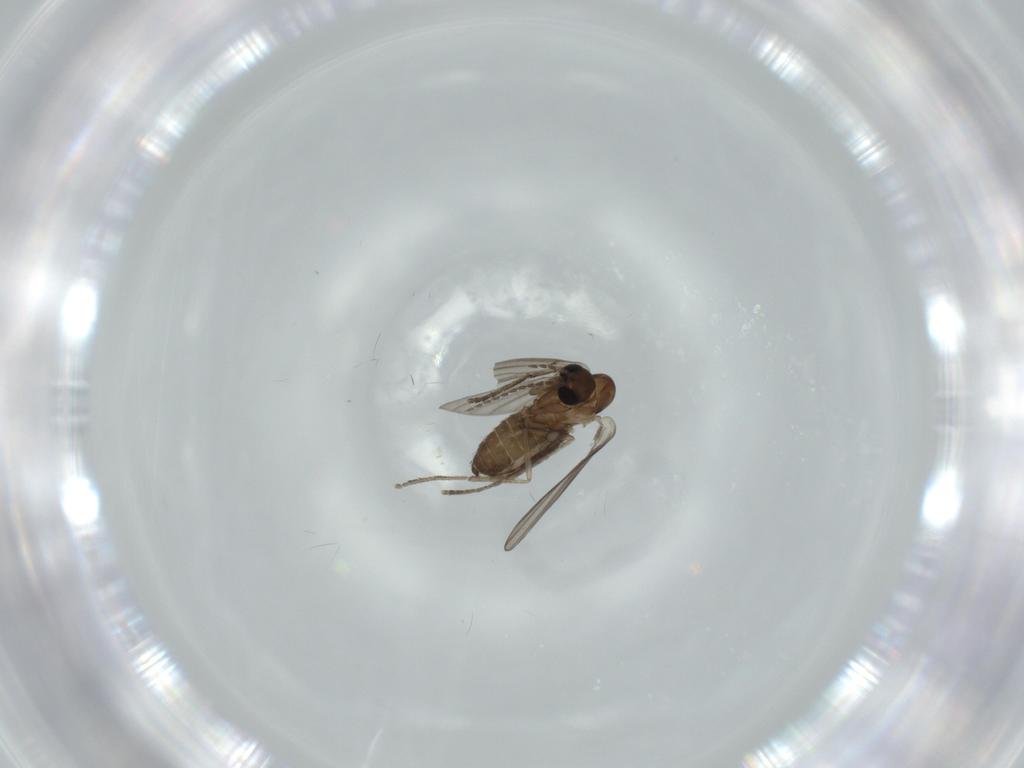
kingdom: Animalia
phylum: Arthropoda
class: Insecta
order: Diptera
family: Psychodidae
